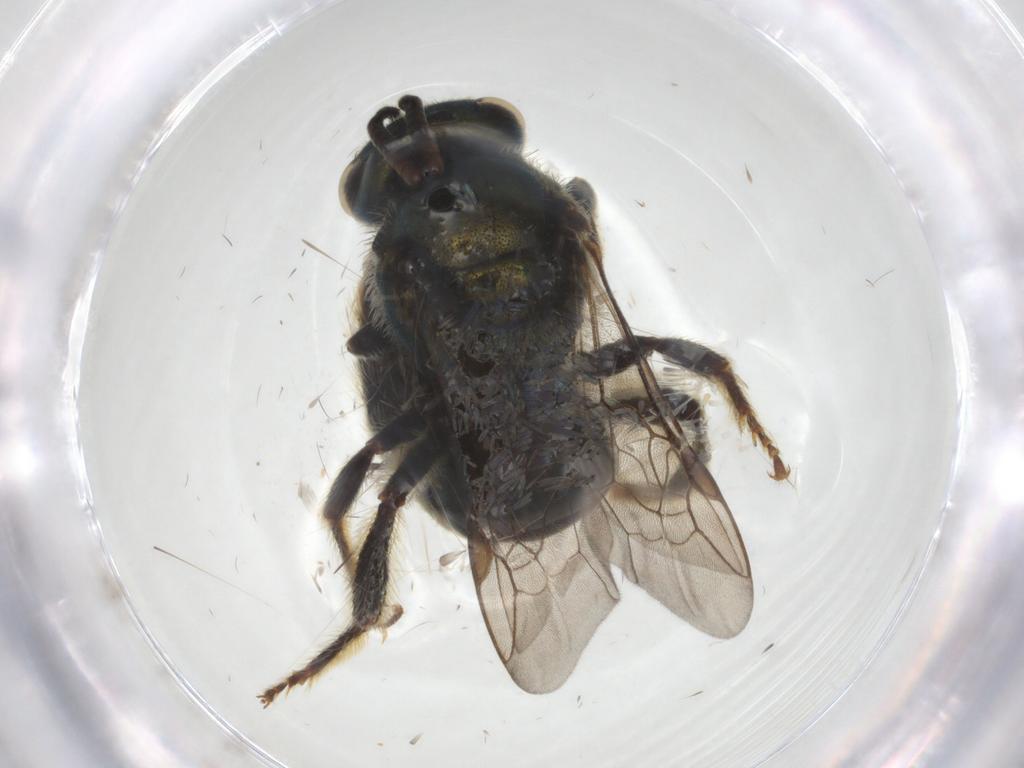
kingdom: Animalia
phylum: Arthropoda
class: Insecta
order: Hymenoptera
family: Halictidae
